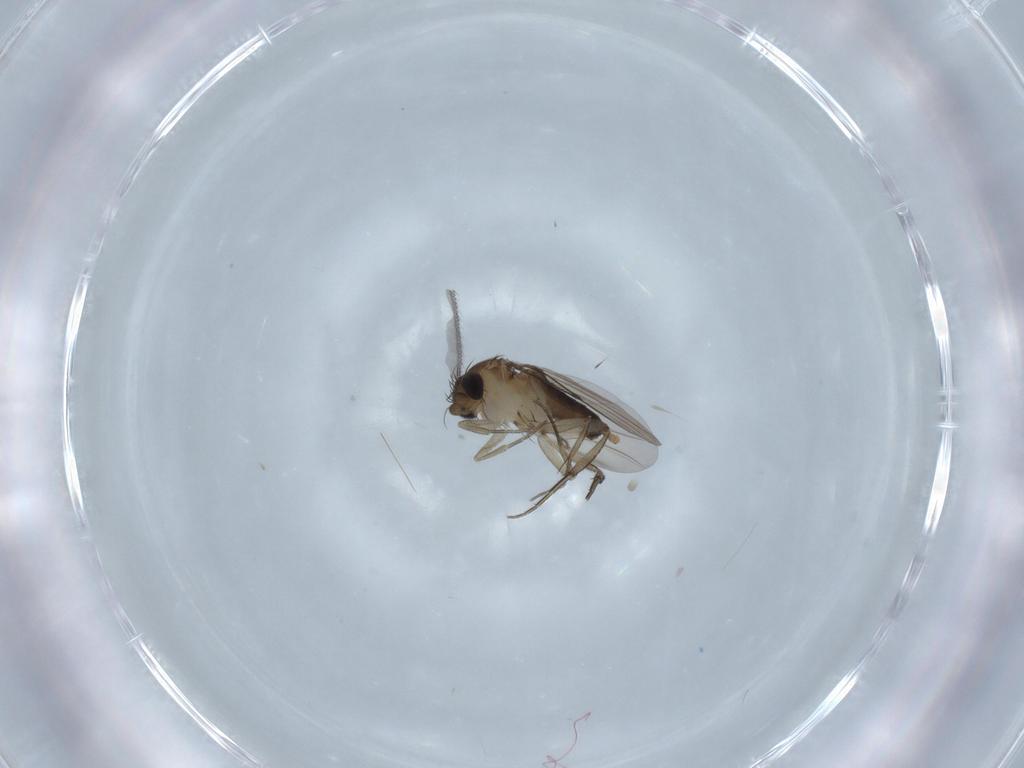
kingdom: Animalia
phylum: Arthropoda
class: Insecta
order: Diptera
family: Phoridae
